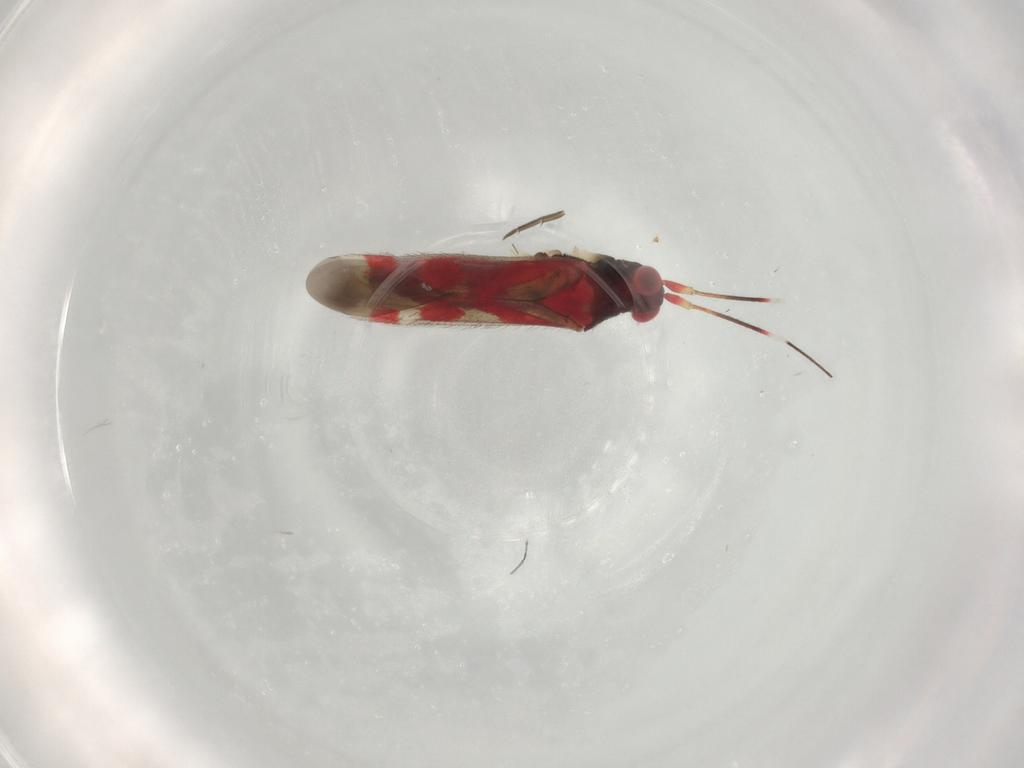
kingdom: Animalia
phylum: Arthropoda
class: Insecta
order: Hemiptera
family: Miridae
